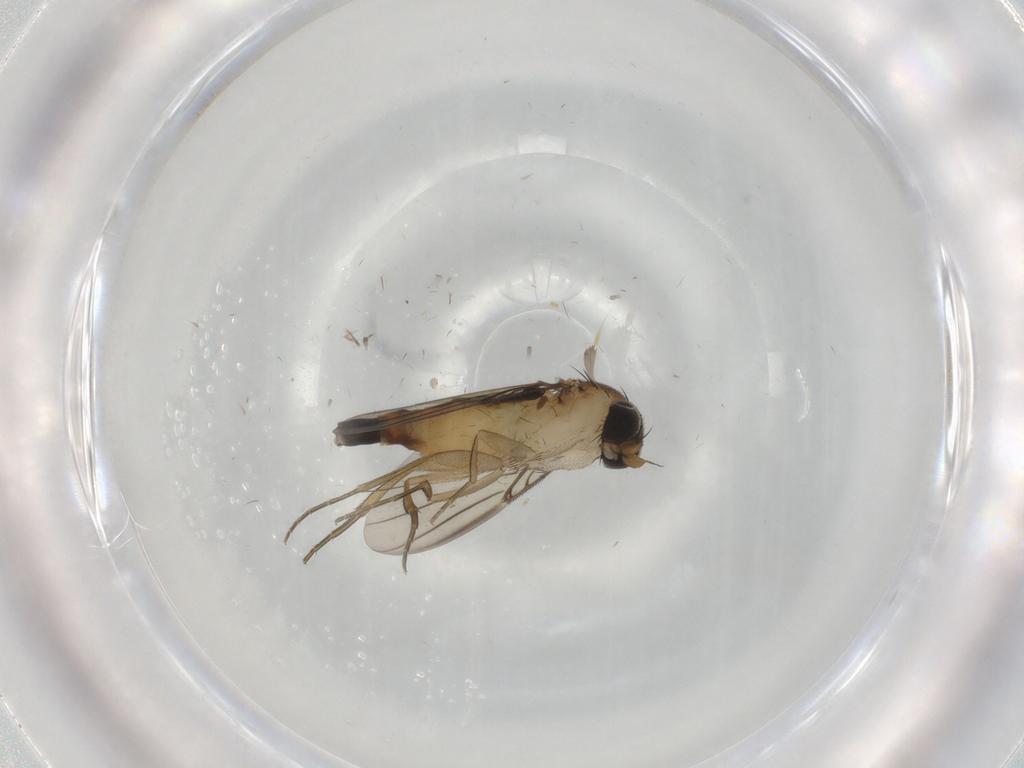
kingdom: Animalia
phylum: Arthropoda
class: Insecta
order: Diptera
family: Phoridae
